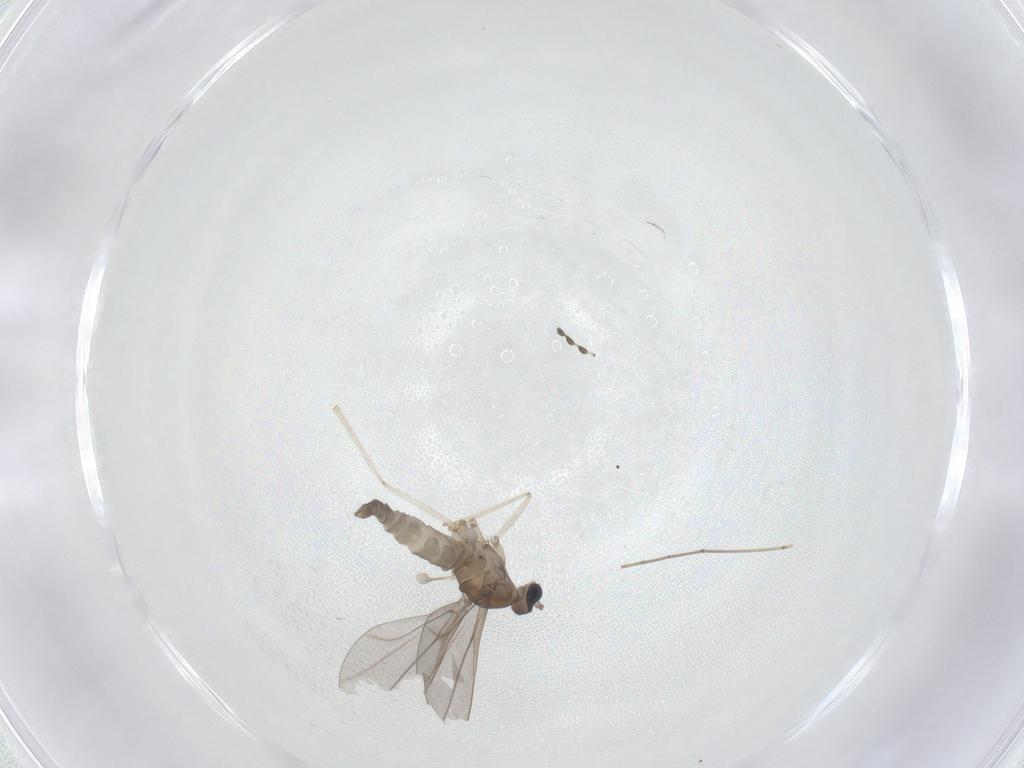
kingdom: Animalia
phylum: Arthropoda
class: Insecta
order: Diptera
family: Cecidomyiidae
